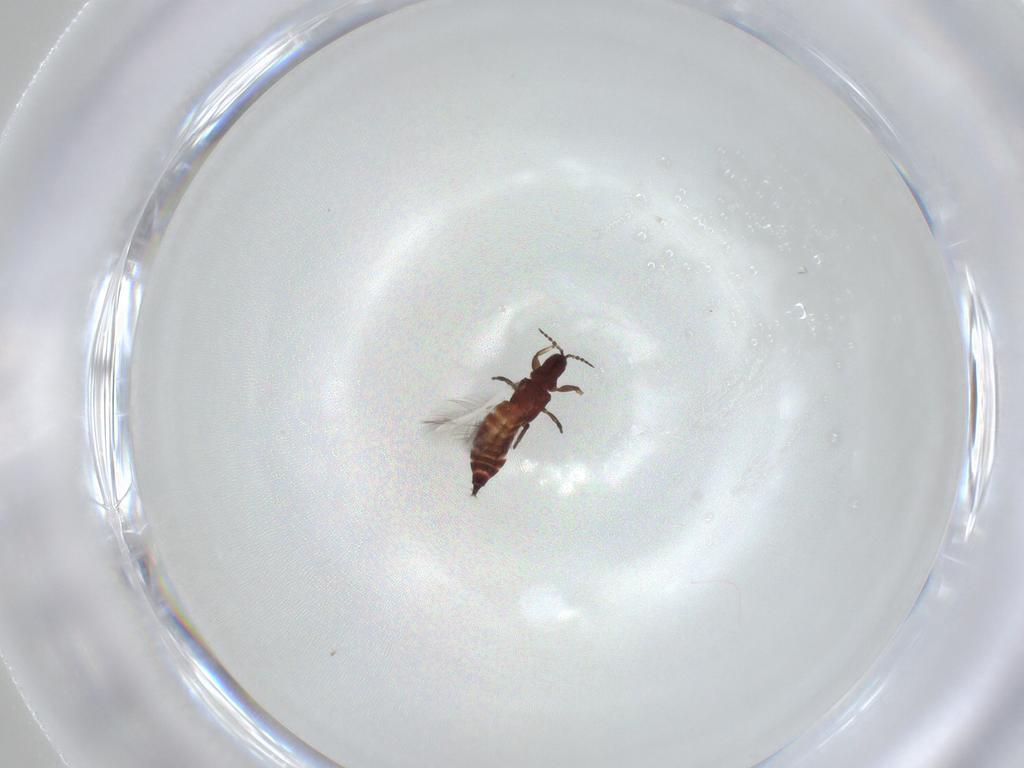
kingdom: Animalia
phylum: Arthropoda
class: Insecta
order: Thysanoptera
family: Phlaeothripidae
